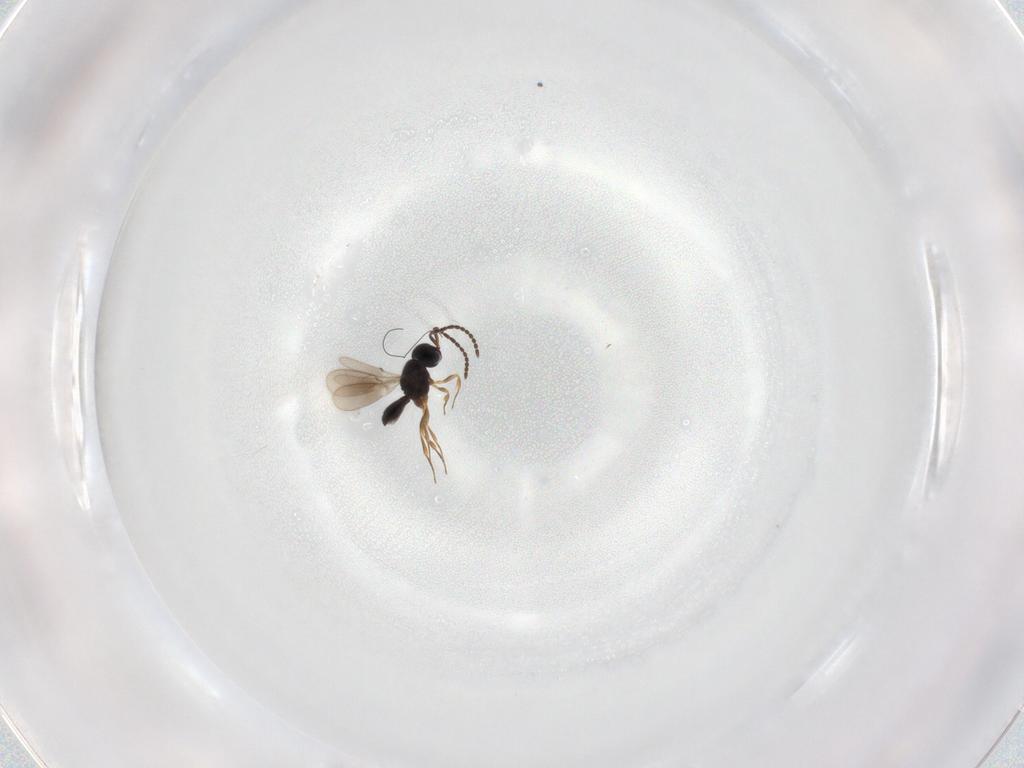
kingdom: Animalia
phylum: Arthropoda
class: Insecta
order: Hymenoptera
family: Scelionidae
